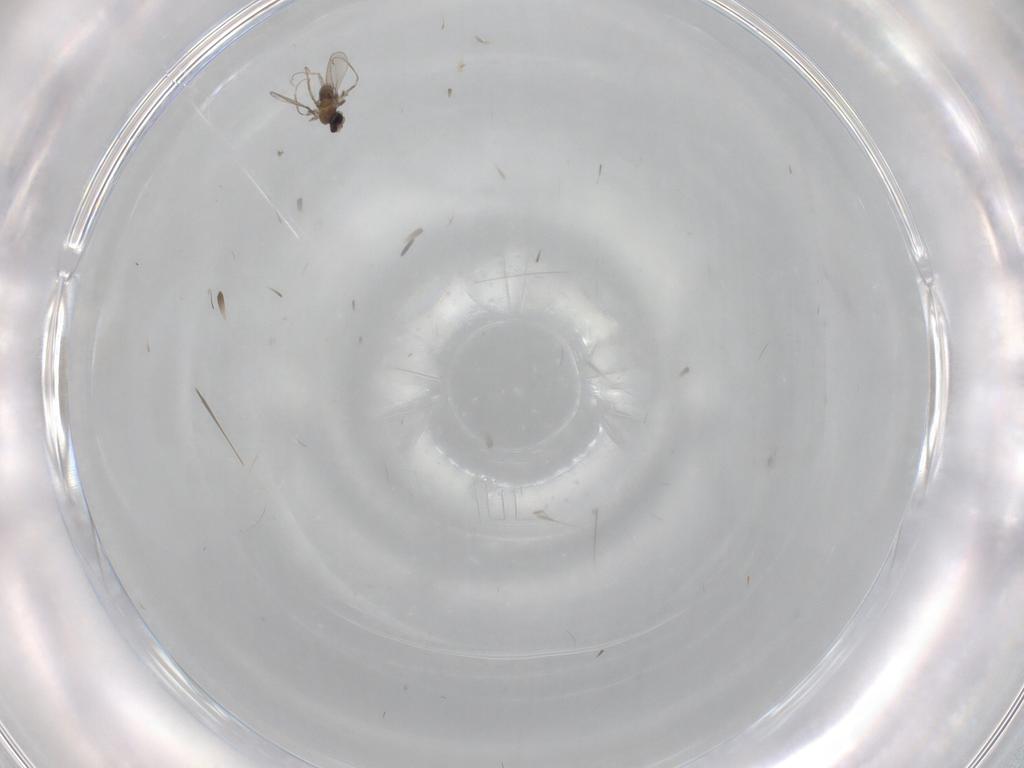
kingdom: Animalia
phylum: Arthropoda
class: Insecta
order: Diptera
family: Cecidomyiidae
